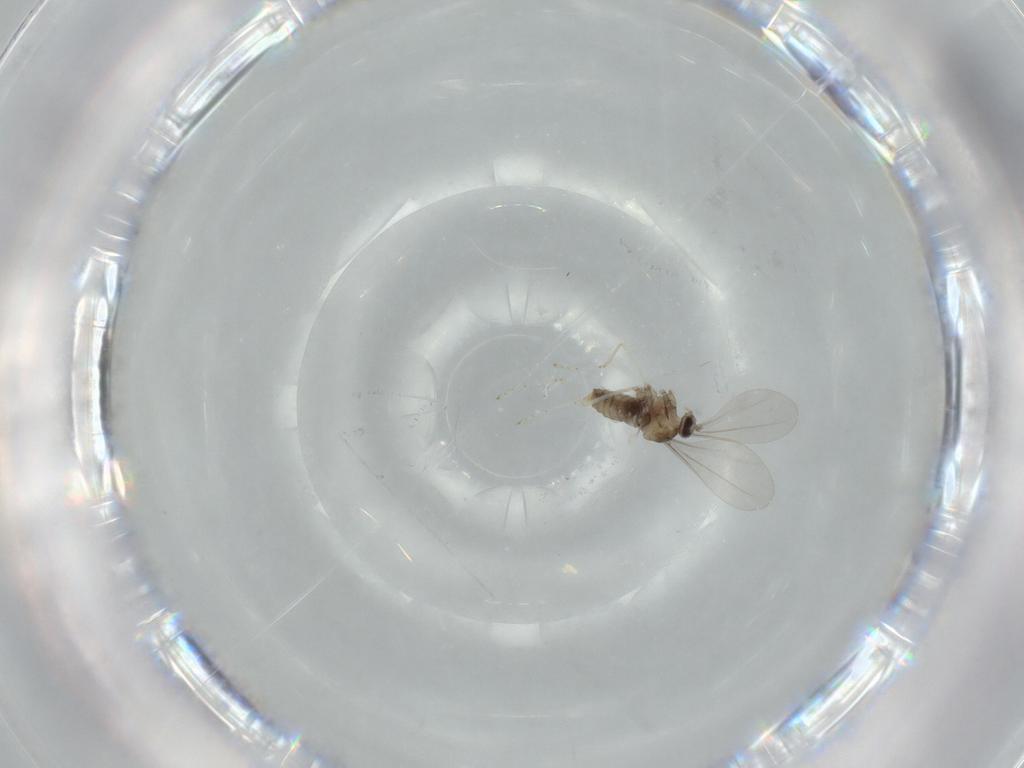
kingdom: Animalia
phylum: Arthropoda
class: Insecta
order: Diptera
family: Cecidomyiidae
